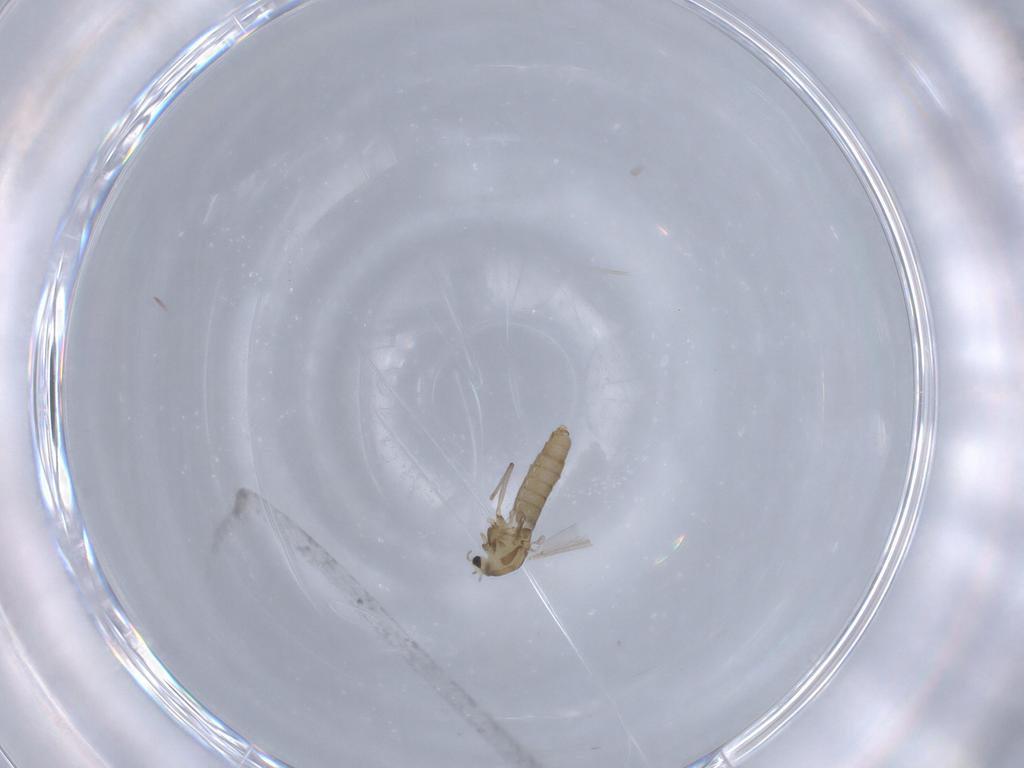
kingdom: Animalia
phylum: Arthropoda
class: Insecta
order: Diptera
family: Chironomidae
